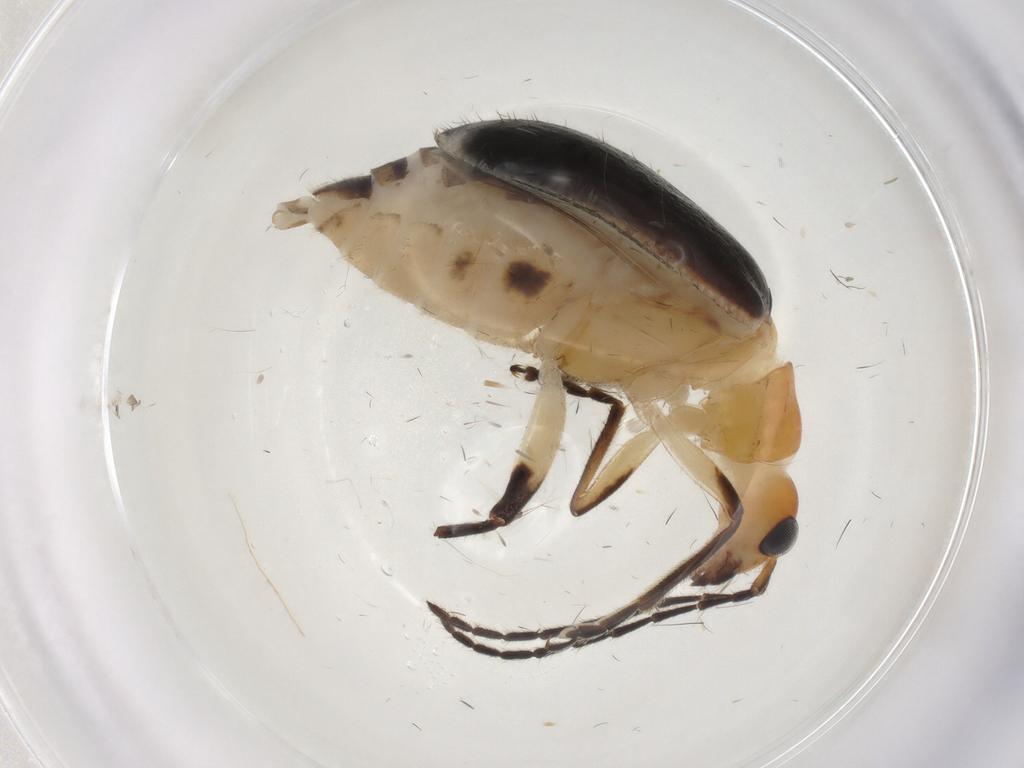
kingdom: Animalia
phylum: Arthropoda
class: Insecta
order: Coleoptera
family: Chrysomelidae
